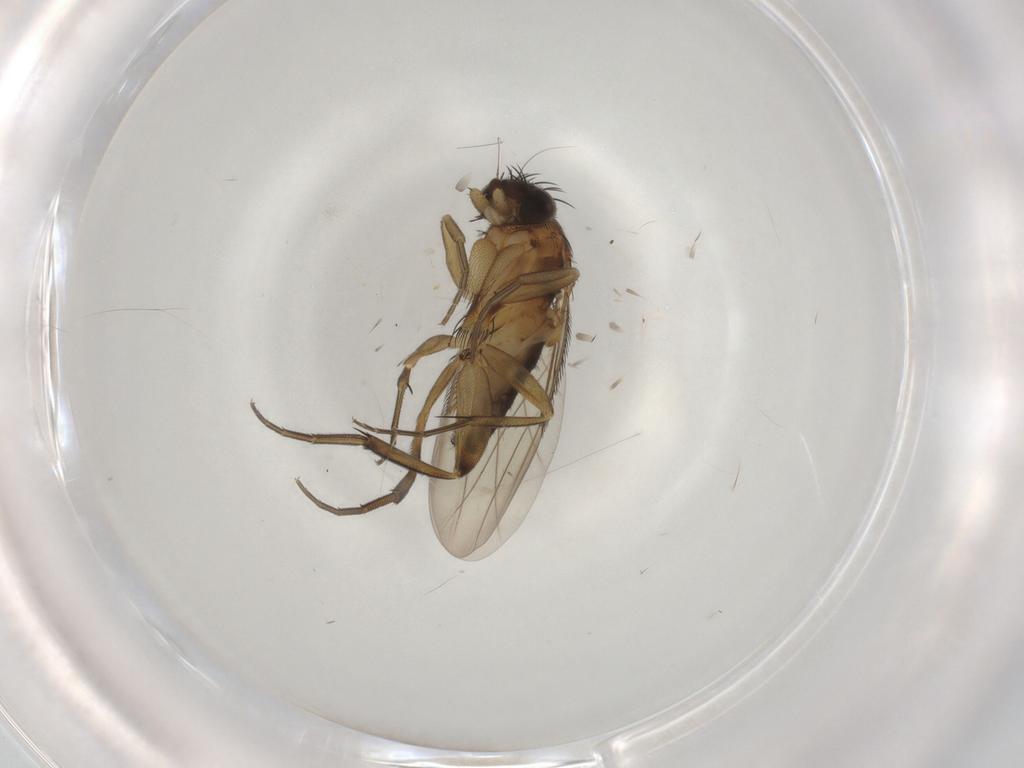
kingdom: Animalia
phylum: Arthropoda
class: Insecta
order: Diptera
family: Phoridae
